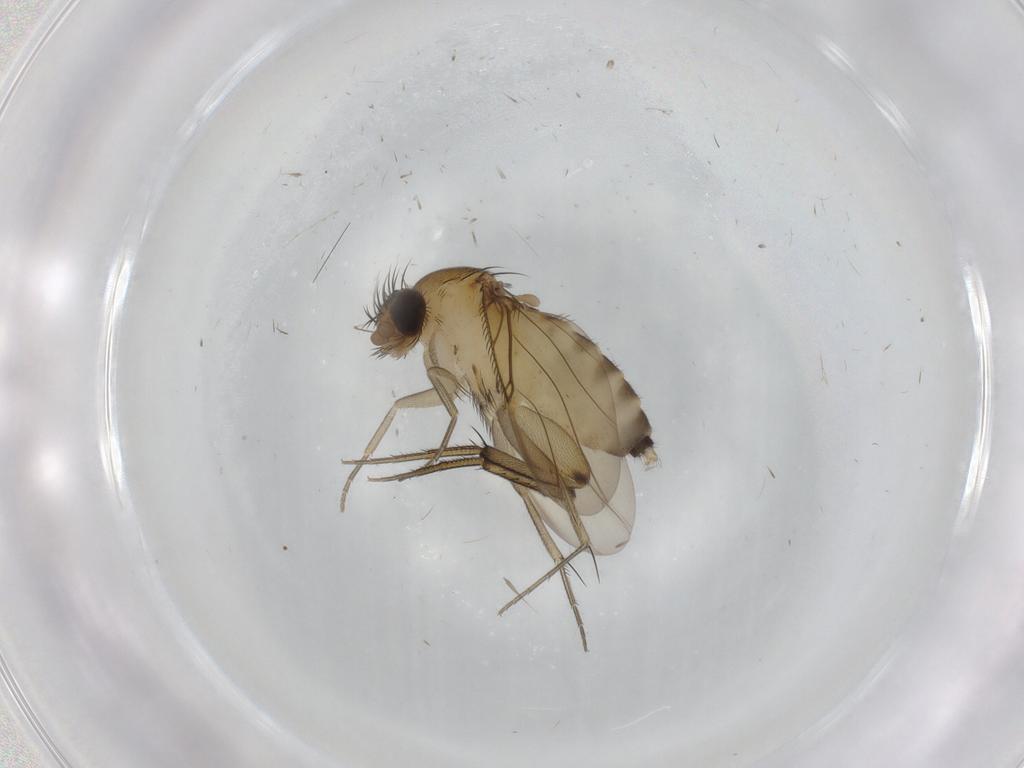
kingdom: Animalia
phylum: Arthropoda
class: Insecta
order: Diptera
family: Phoridae
